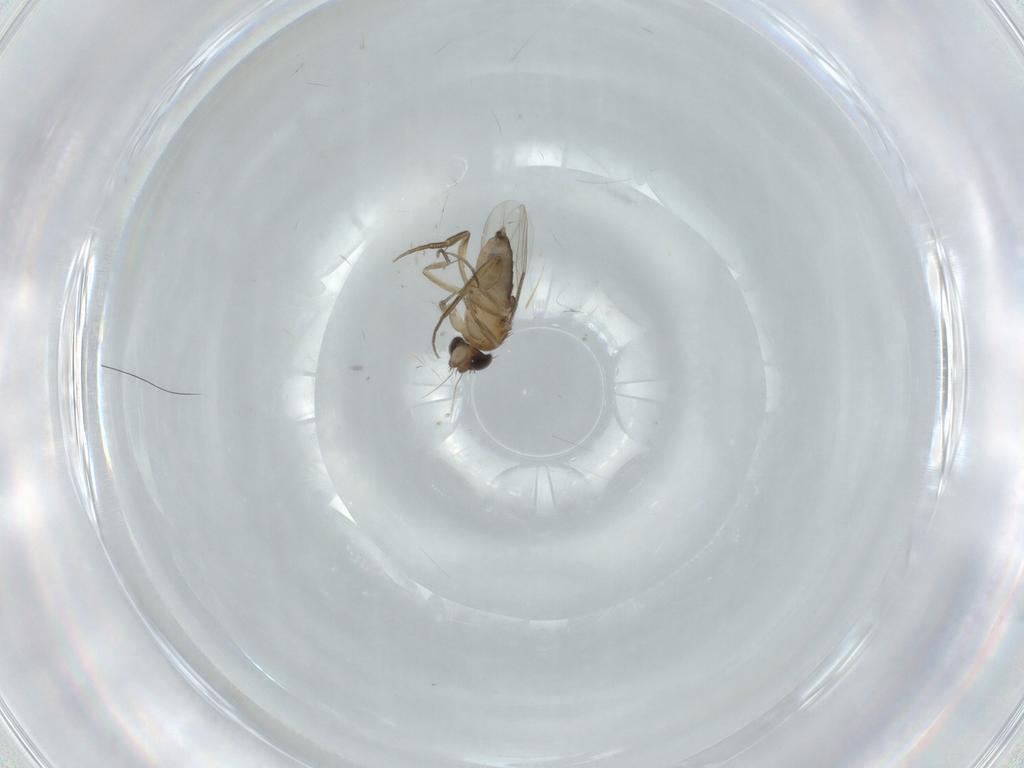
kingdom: Animalia
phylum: Arthropoda
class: Insecta
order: Diptera
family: Phoridae
